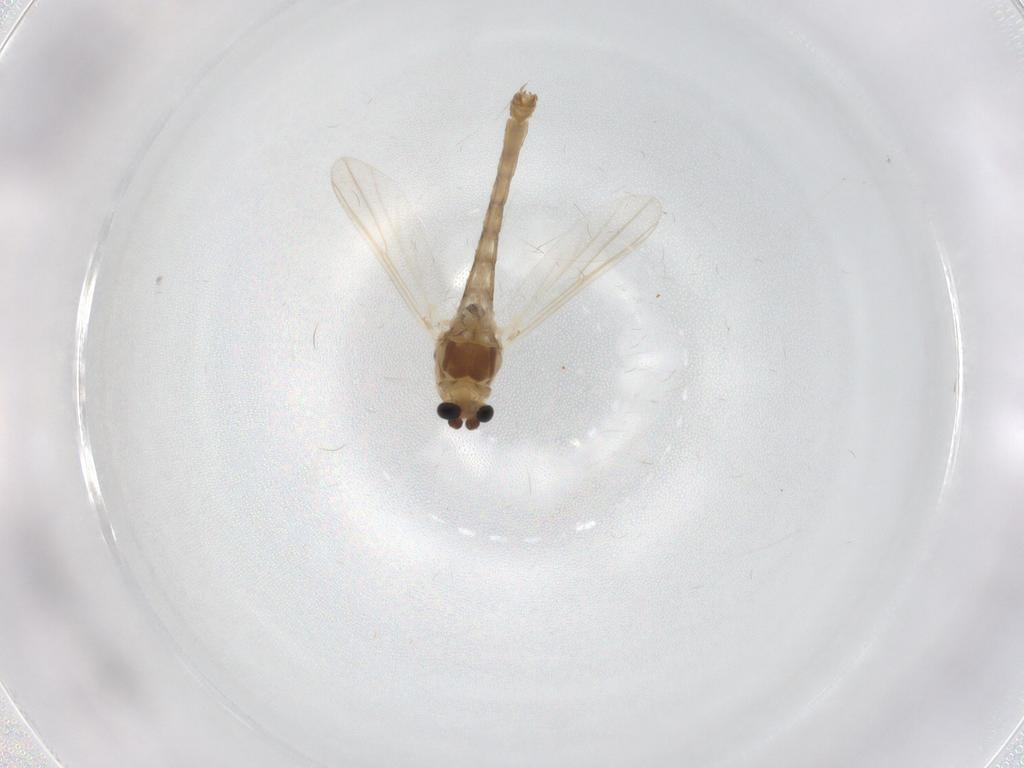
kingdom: Animalia
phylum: Arthropoda
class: Insecta
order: Diptera
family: Chironomidae
